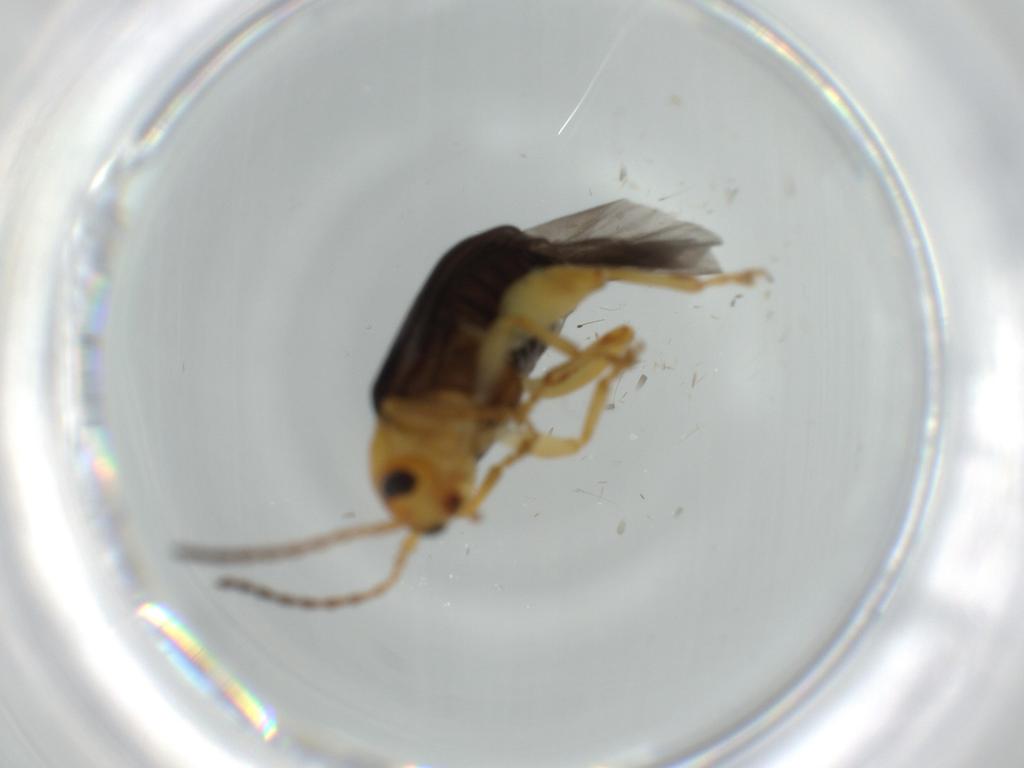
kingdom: Animalia
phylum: Arthropoda
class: Insecta
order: Coleoptera
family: Chrysomelidae
